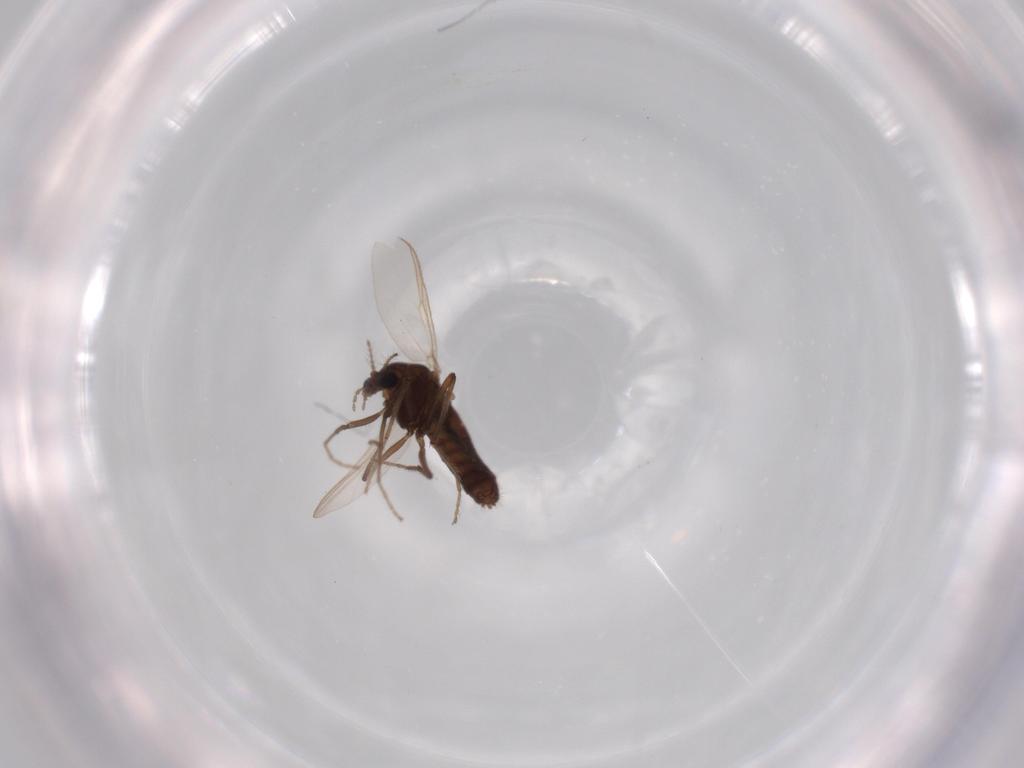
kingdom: Animalia
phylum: Arthropoda
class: Insecta
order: Diptera
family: Chironomidae
